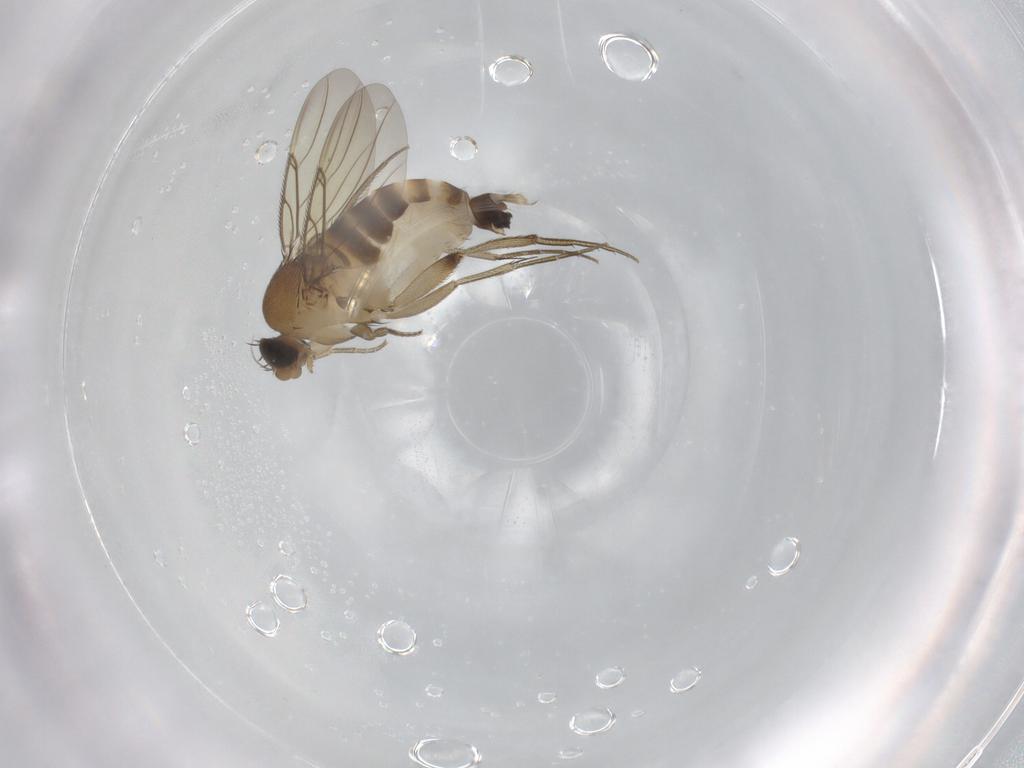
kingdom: Animalia
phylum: Arthropoda
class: Insecta
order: Diptera
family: Phoridae
